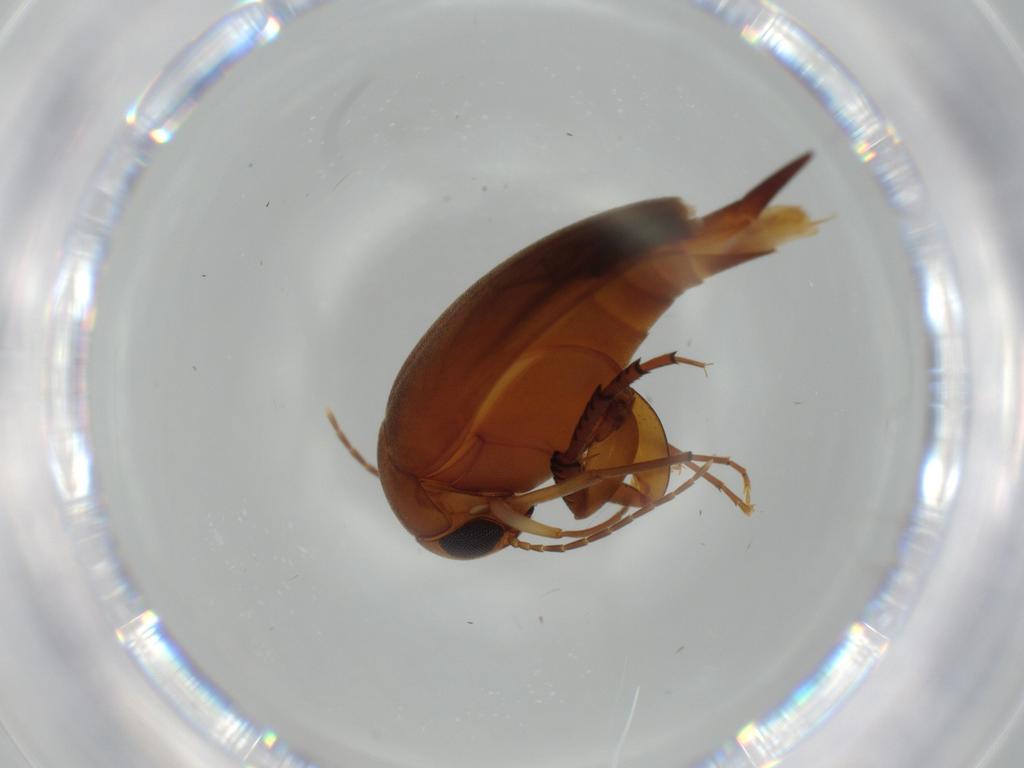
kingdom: Animalia
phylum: Arthropoda
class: Insecta
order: Coleoptera
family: Mordellidae
